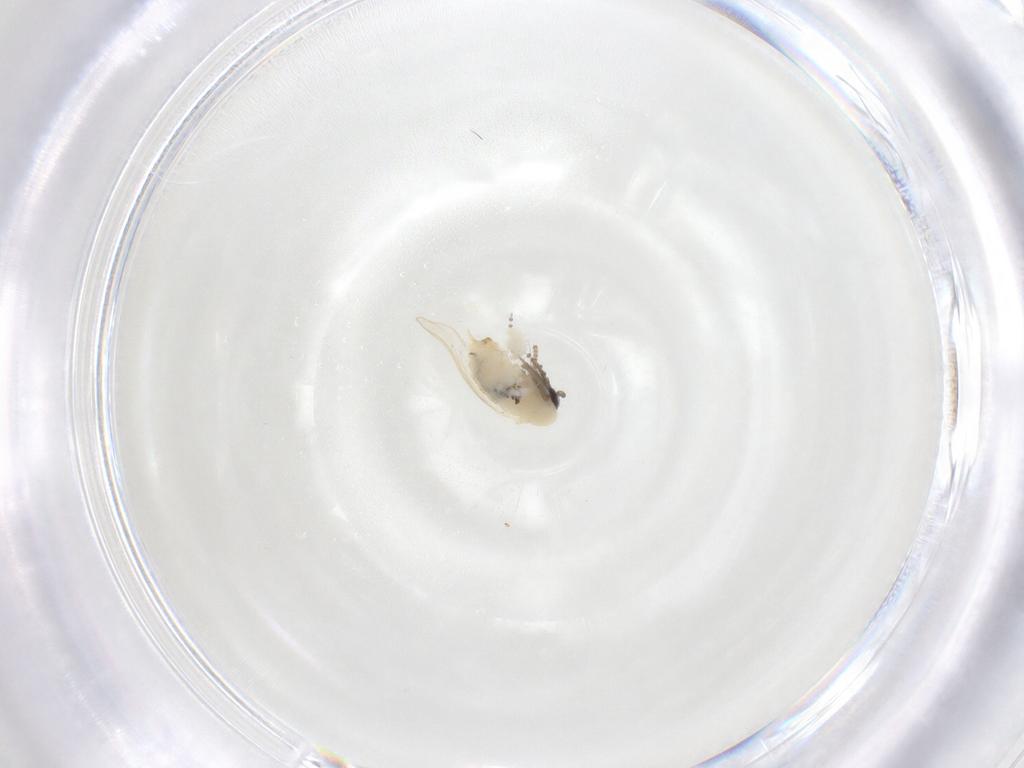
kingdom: Animalia
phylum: Arthropoda
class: Insecta
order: Diptera
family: Psychodidae
